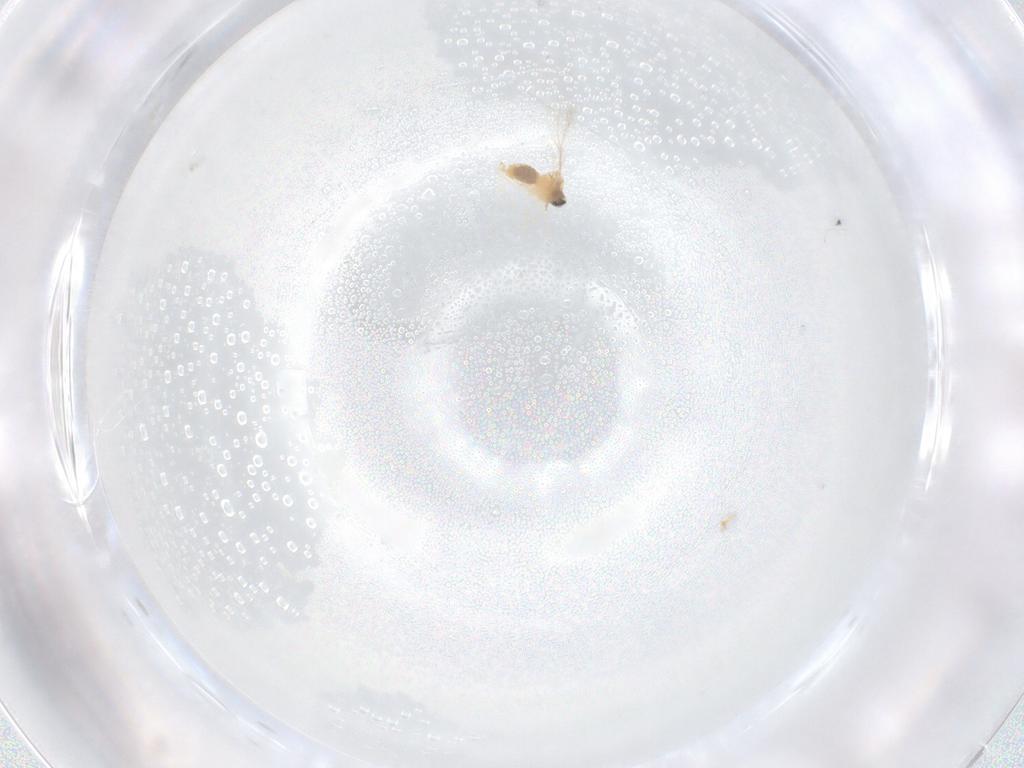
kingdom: Animalia
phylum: Arthropoda
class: Insecta
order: Diptera
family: Cecidomyiidae
